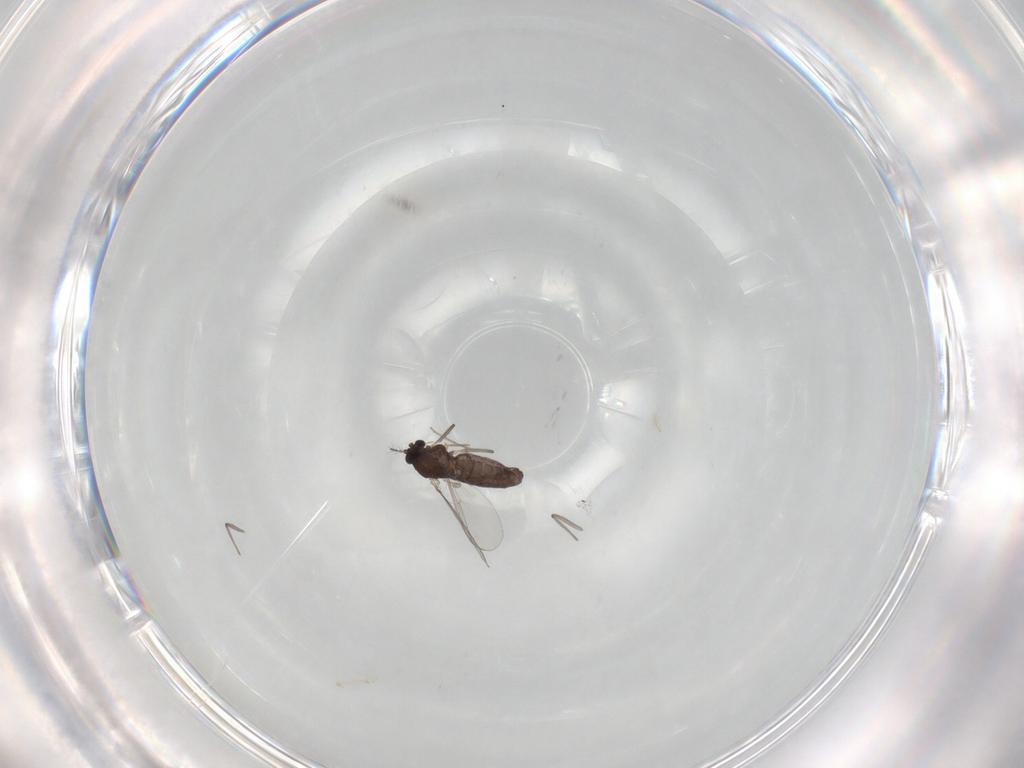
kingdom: Animalia
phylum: Arthropoda
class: Insecta
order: Diptera
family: Chironomidae
